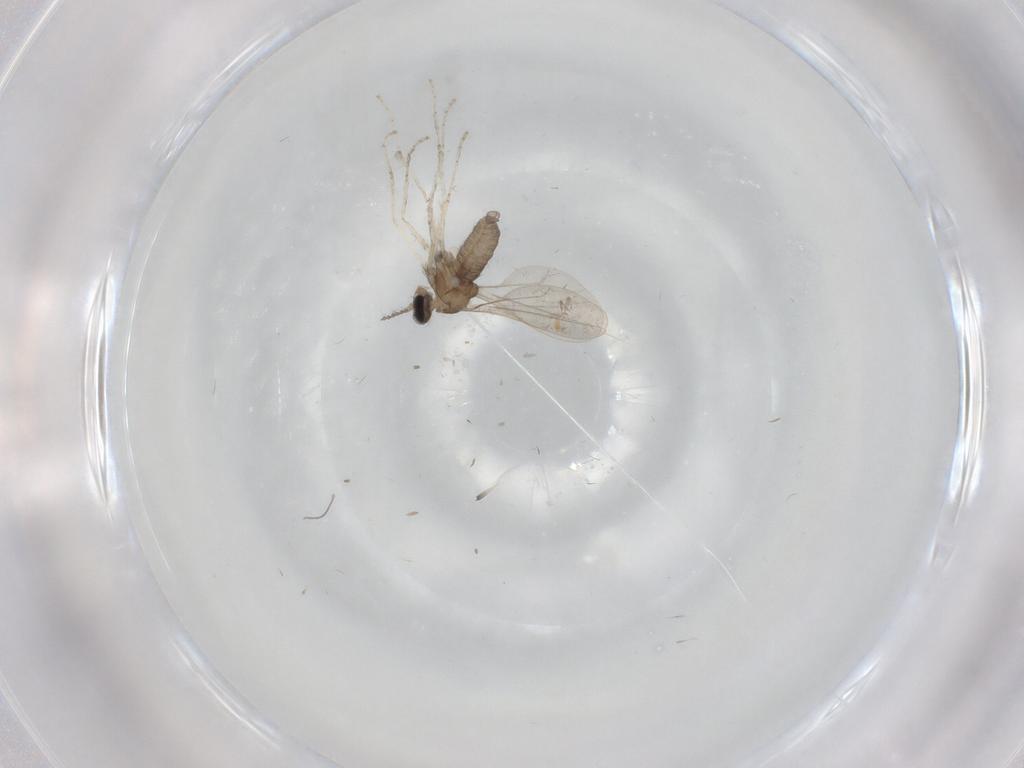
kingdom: Animalia
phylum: Arthropoda
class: Insecta
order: Diptera
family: Cecidomyiidae
